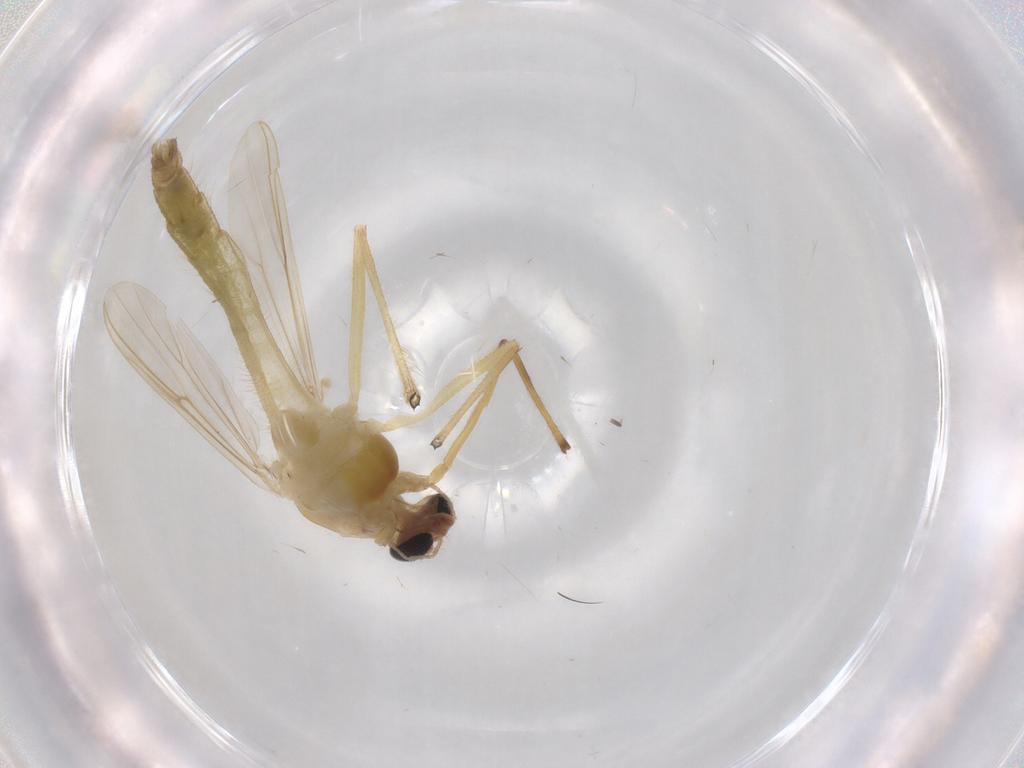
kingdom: Animalia
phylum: Arthropoda
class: Insecta
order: Diptera
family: Chironomidae
